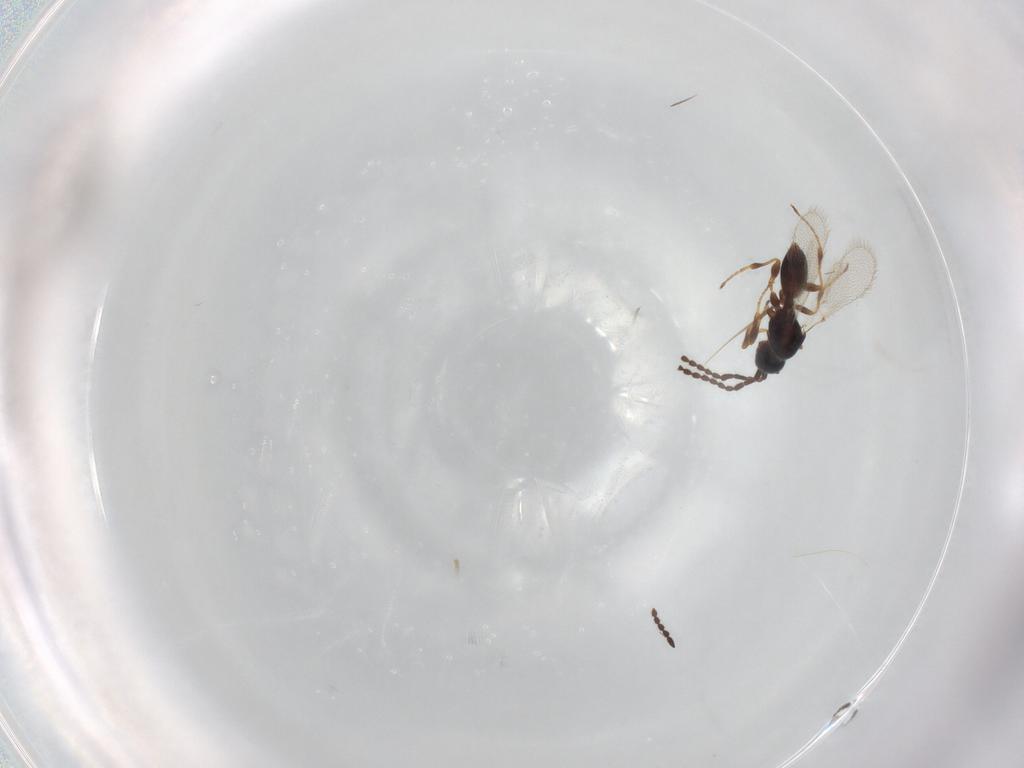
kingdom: Animalia
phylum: Arthropoda
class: Insecta
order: Hymenoptera
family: Diapriidae
